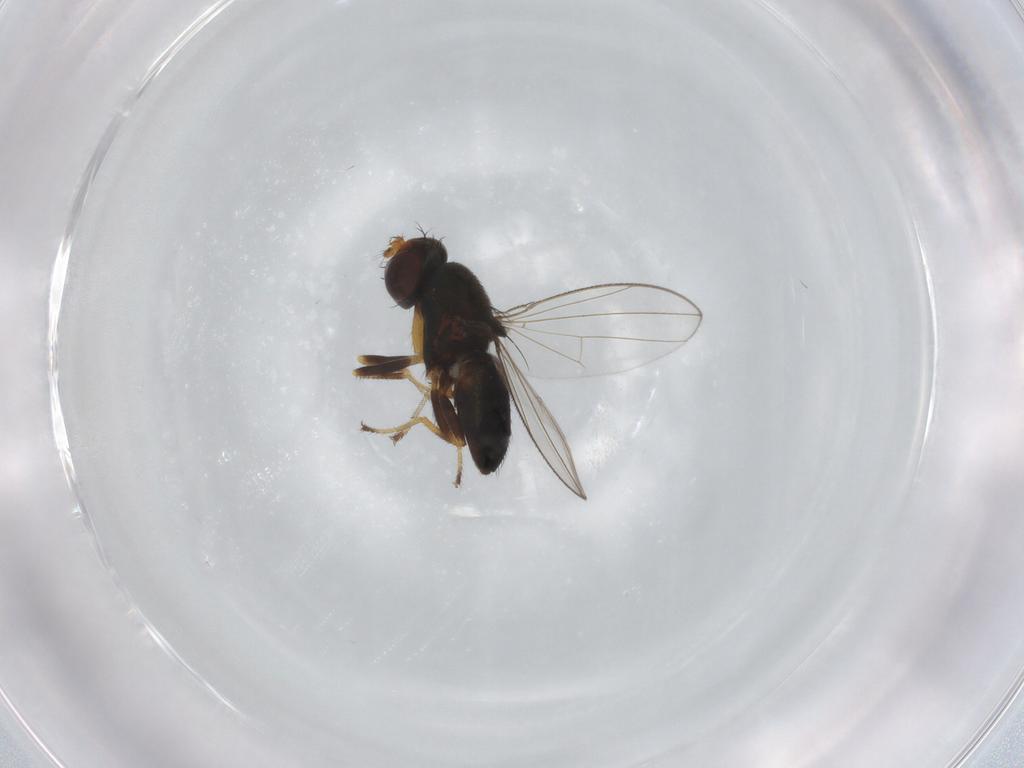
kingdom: Animalia
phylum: Arthropoda
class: Insecta
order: Diptera
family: Ephydridae
